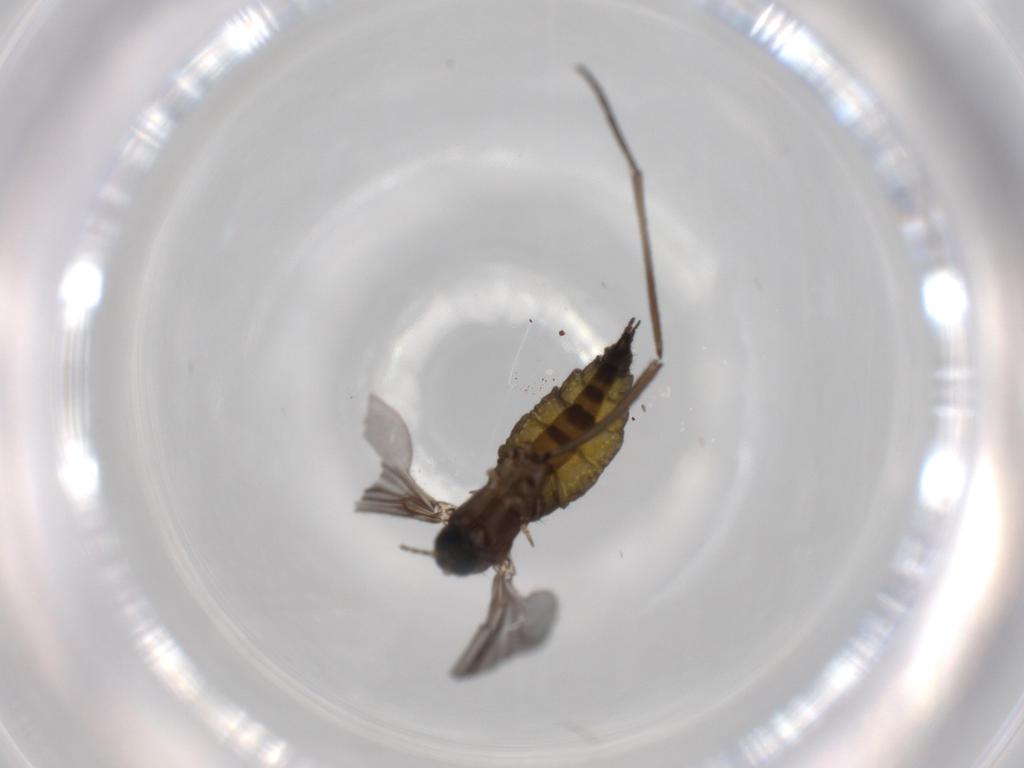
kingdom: Animalia
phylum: Arthropoda
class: Insecta
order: Diptera
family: Sciaridae
